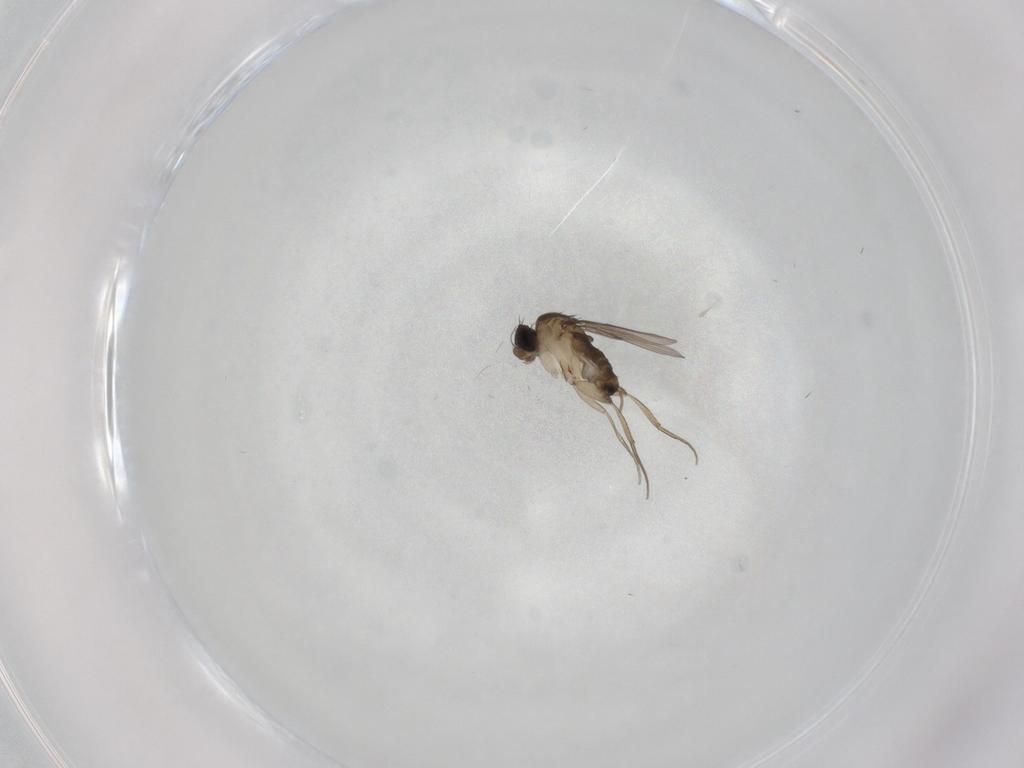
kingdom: Animalia
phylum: Arthropoda
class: Insecta
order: Diptera
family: Phoridae
